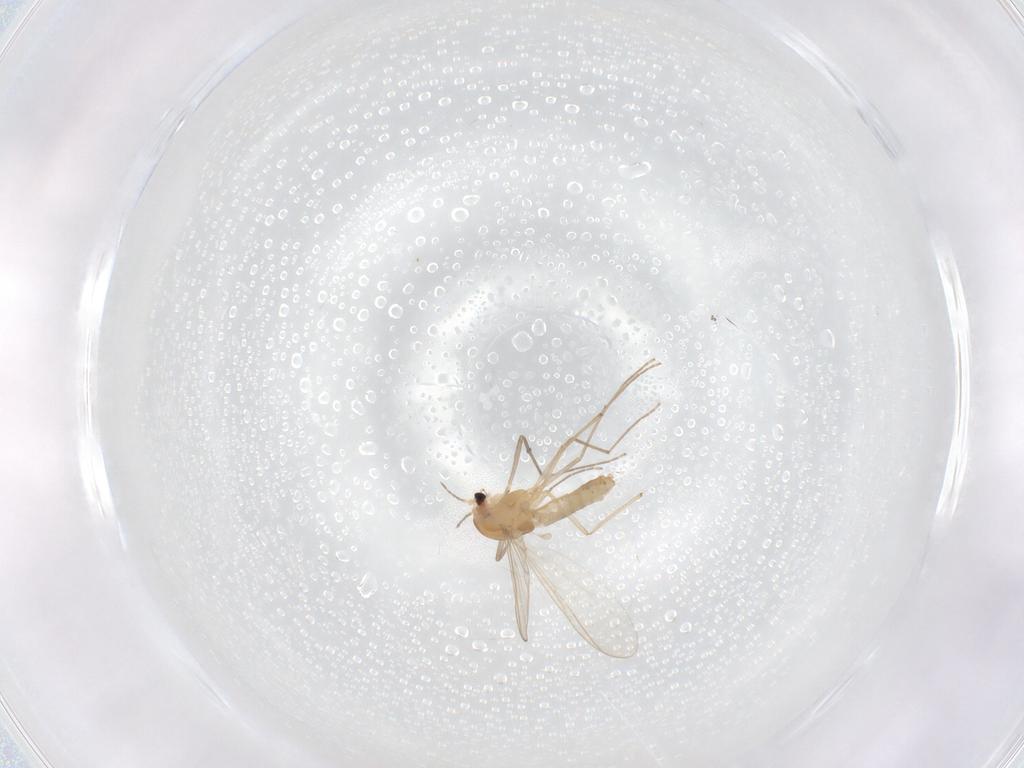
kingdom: Animalia
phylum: Arthropoda
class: Insecta
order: Diptera
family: Chironomidae
